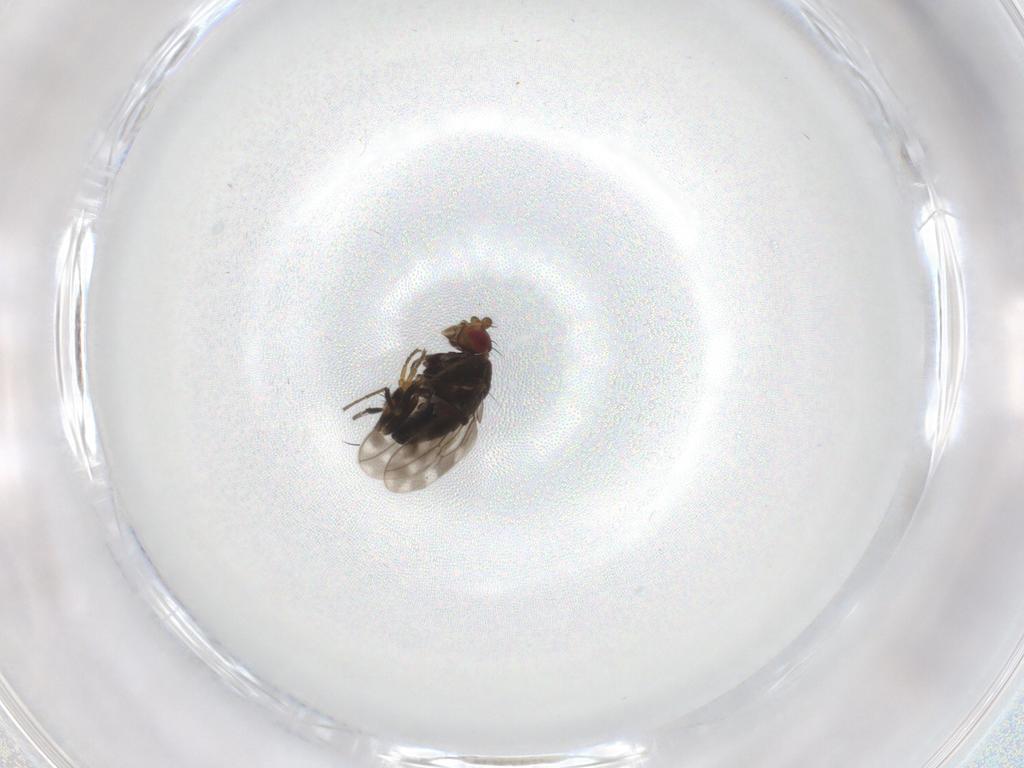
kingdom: Animalia
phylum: Arthropoda
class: Insecta
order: Diptera
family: Sphaeroceridae
